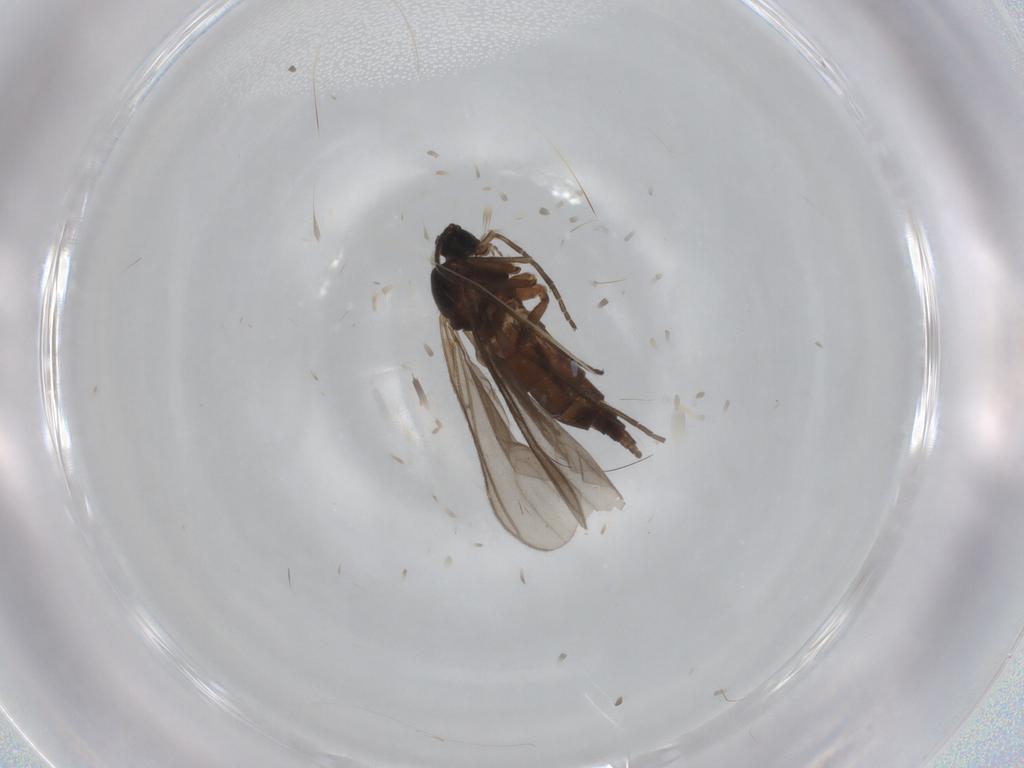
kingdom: Animalia
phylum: Arthropoda
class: Insecta
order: Diptera
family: Sciaridae
